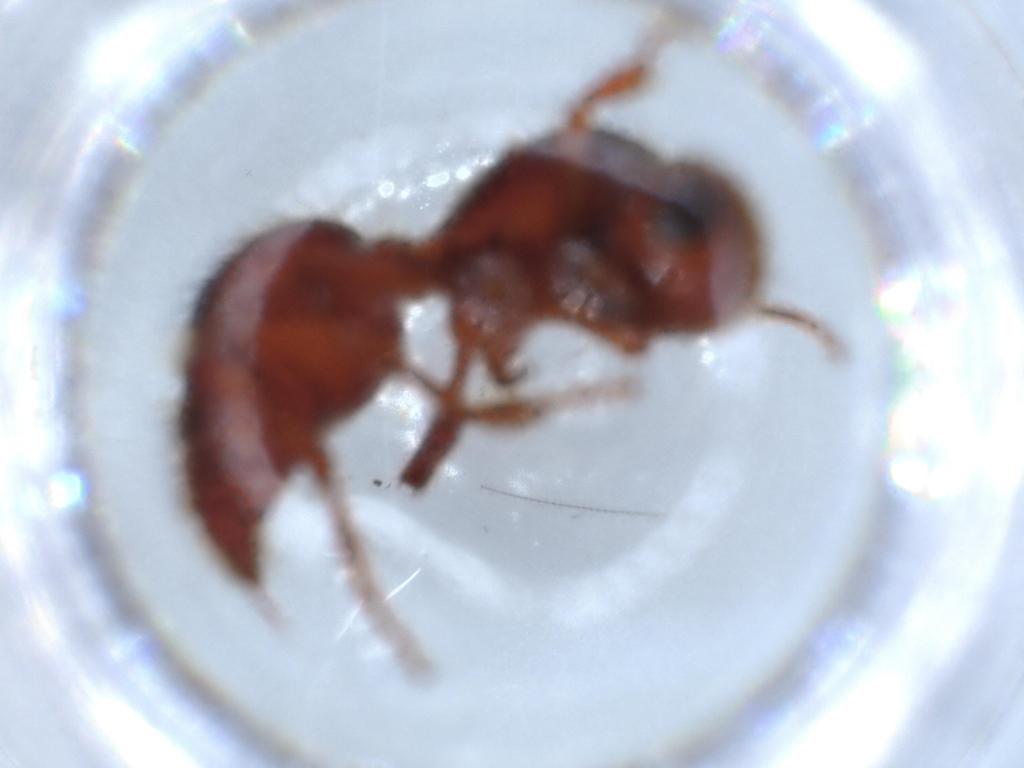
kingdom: Animalia
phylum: Arthropoda
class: Insecta
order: Hymenoptera
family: Mutillidae
